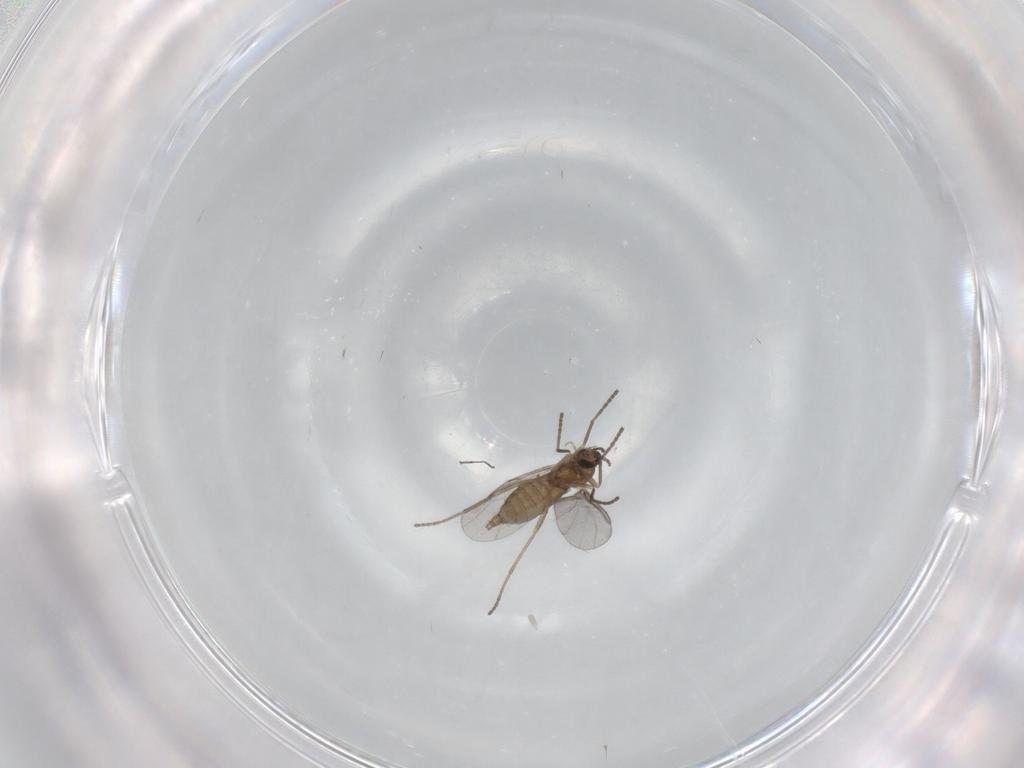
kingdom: Animalia
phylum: Arthropoda
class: Insecta
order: Diptera
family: Cecidomyiidae
